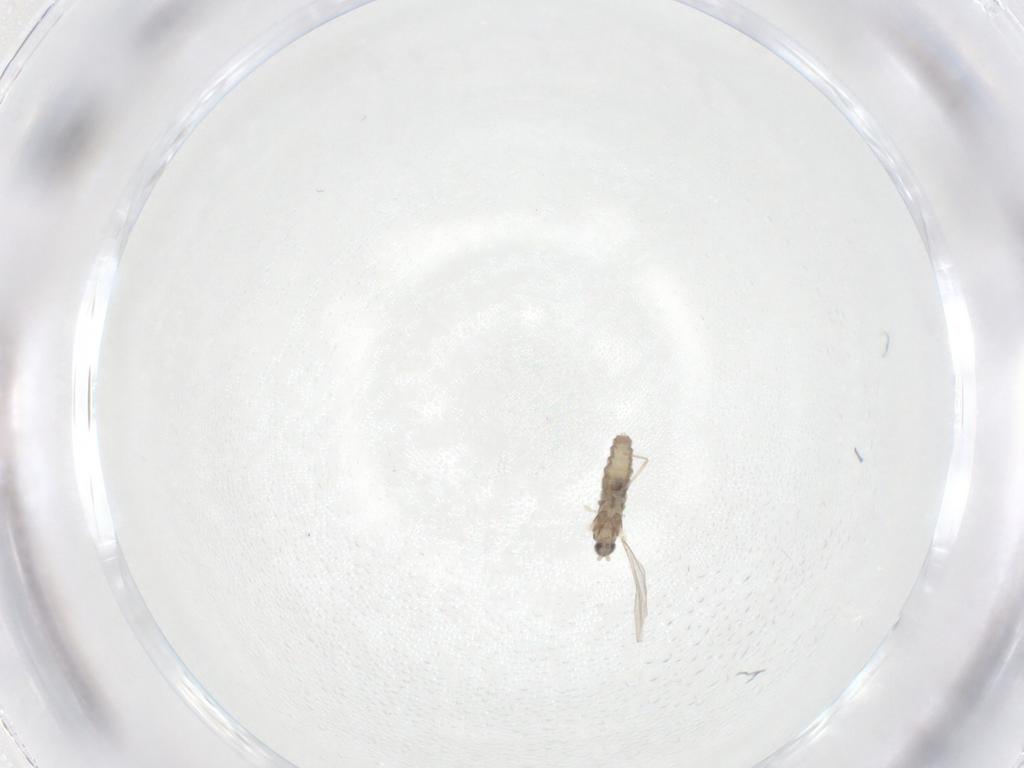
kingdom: Animalia
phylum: Arthropoda
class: Insecta
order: Diptera
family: Cecidomyiidae
